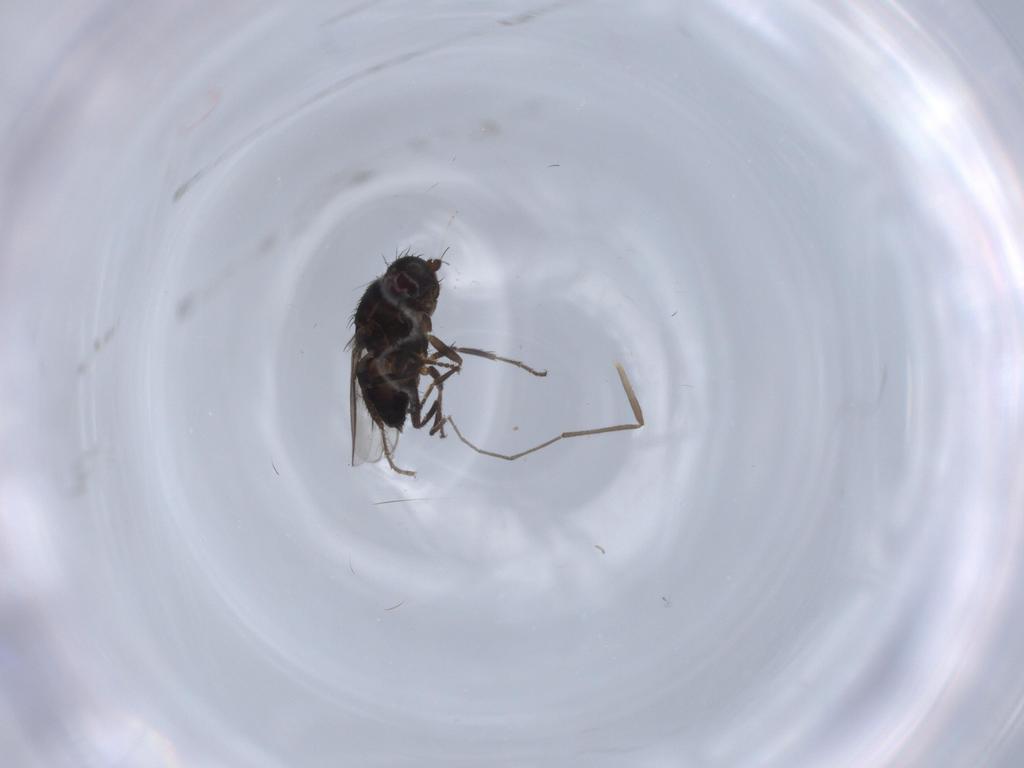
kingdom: Animalia
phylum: Arthropoda
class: Insecta
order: Diptera
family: Sphaeroceridae
